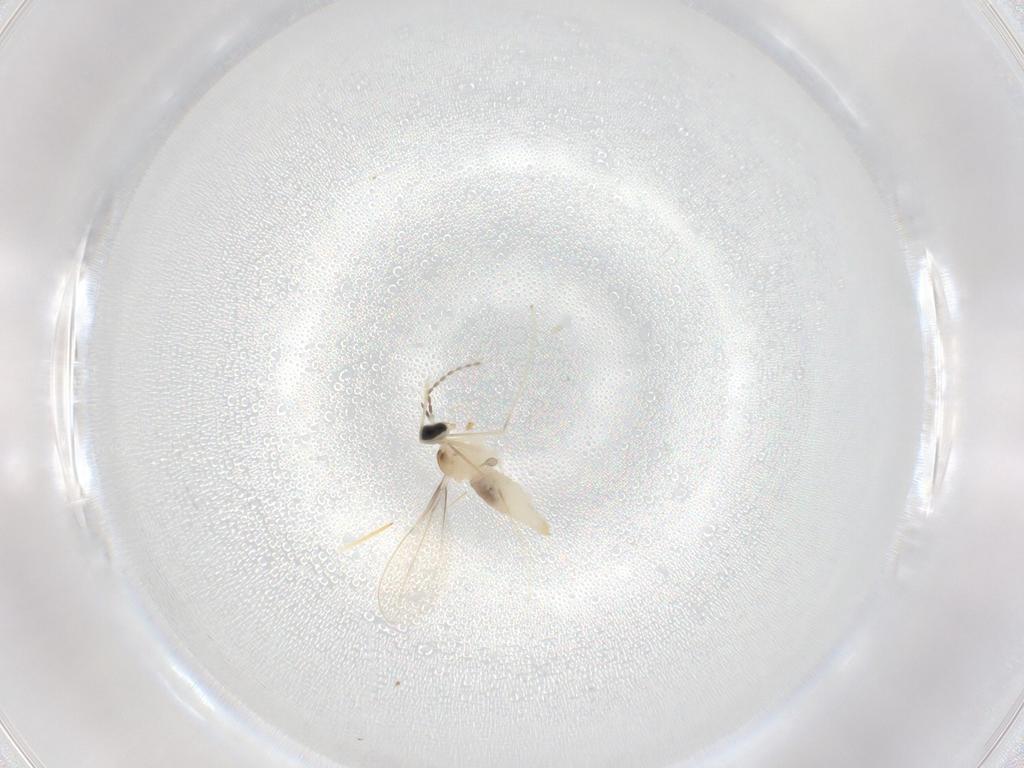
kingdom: Animalia
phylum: Arthropoda
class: Insecta
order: Diptera
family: Cecidomyiidae
